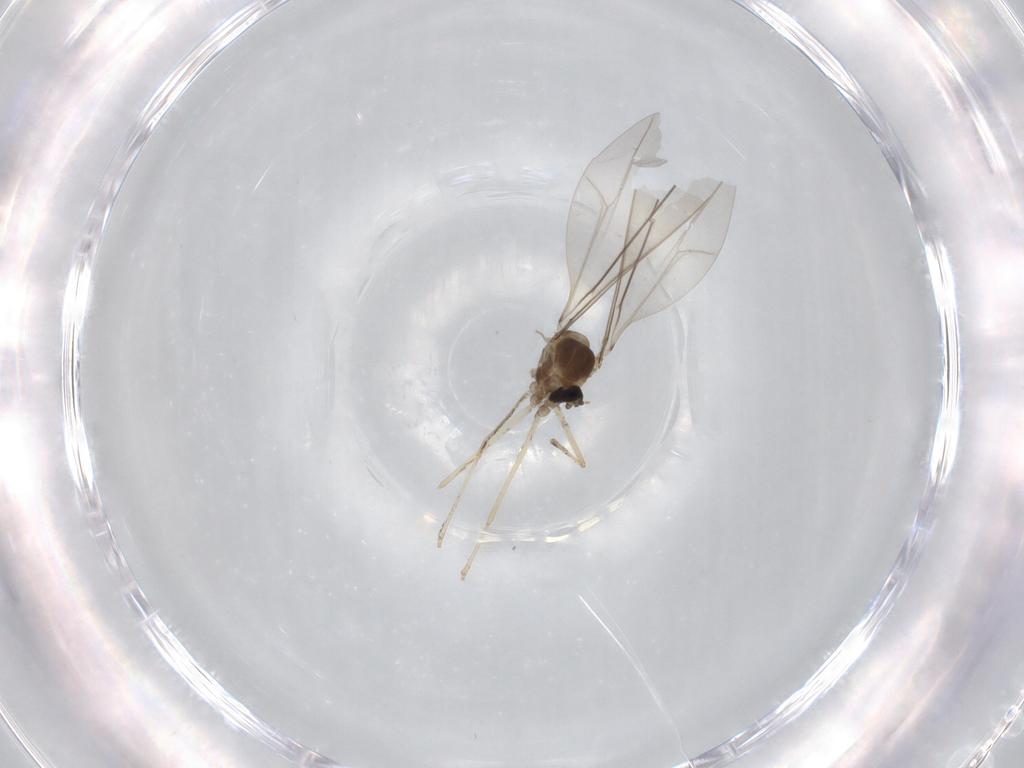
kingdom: Animalia
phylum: Arthropoda
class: Insecta
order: Diptera
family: Cecidomyiidae
